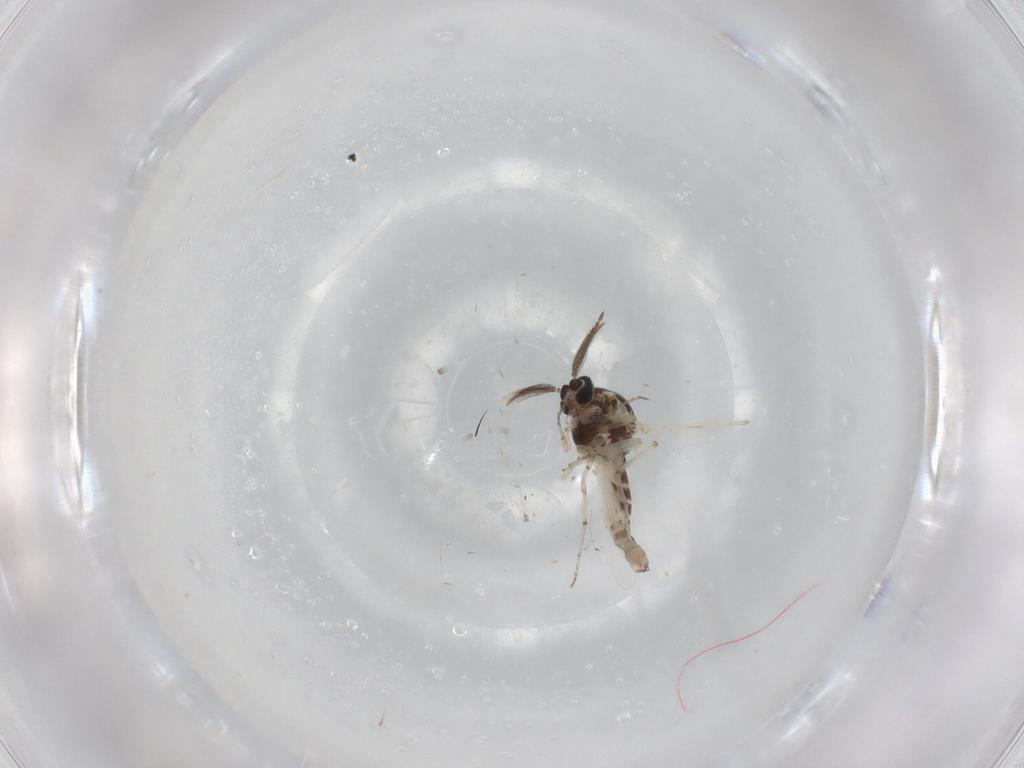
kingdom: Animalia
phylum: Arthropoda
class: Insecta
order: Diptera
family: Ceratopogonidae
